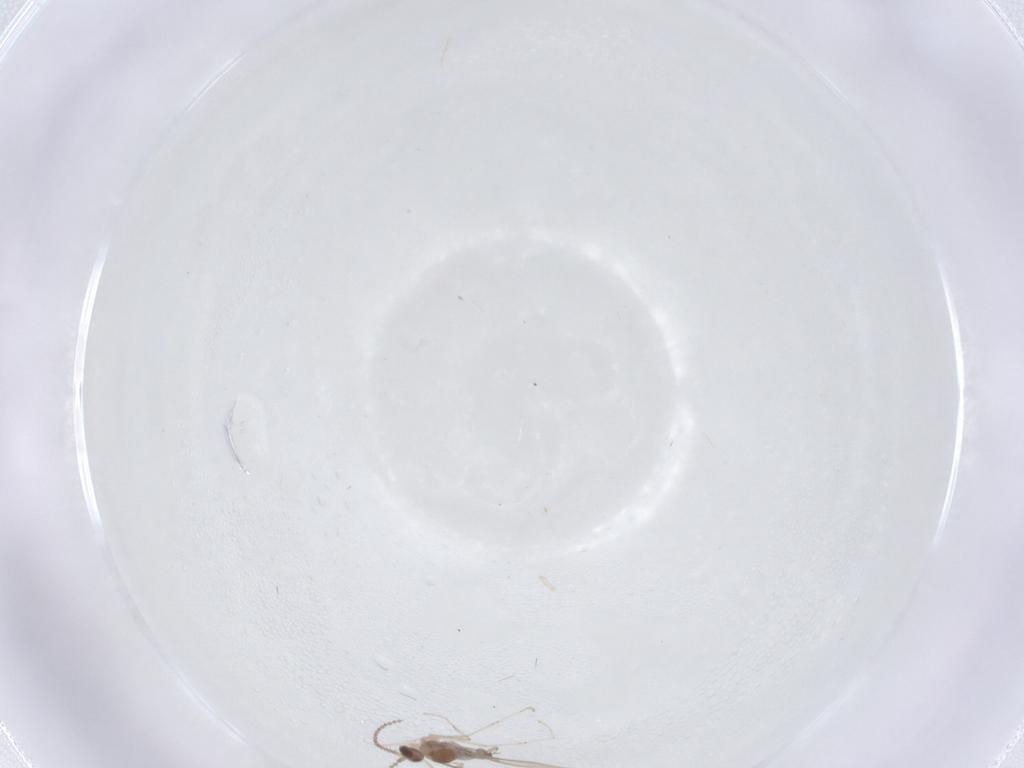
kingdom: Animalia
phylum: Arthropoda
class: Insecta
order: Diptera
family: Cecidomyiidae
